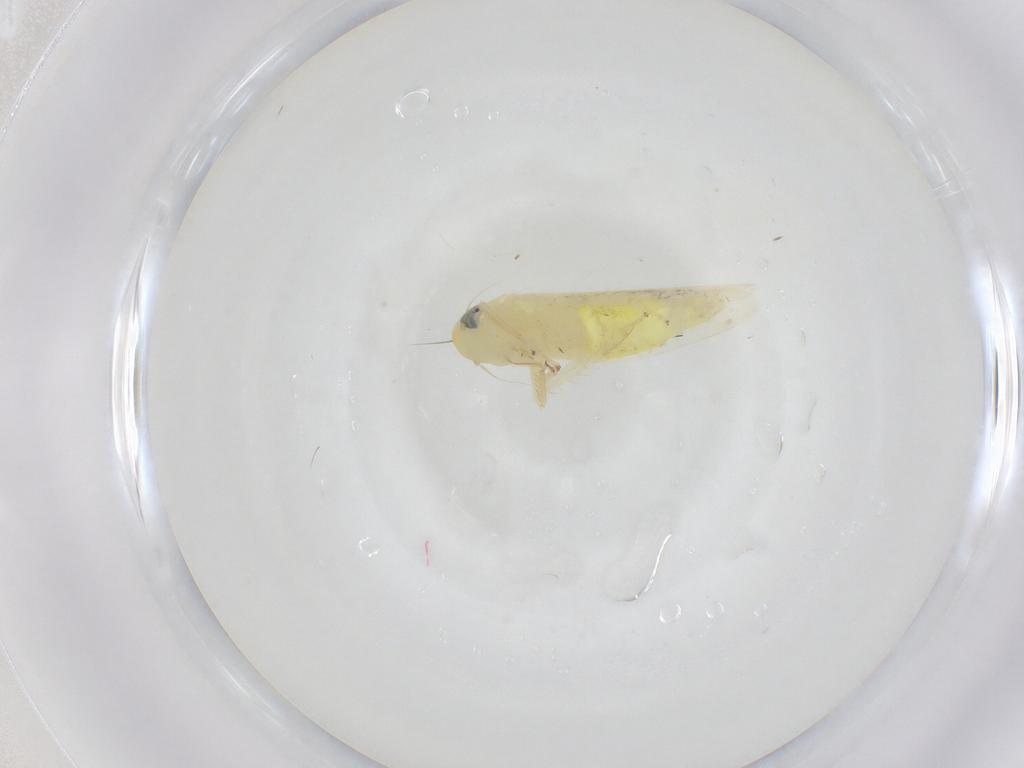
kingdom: Animalia
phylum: Arthropoda
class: Insecta
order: Hemiptera
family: Cicadellidae
